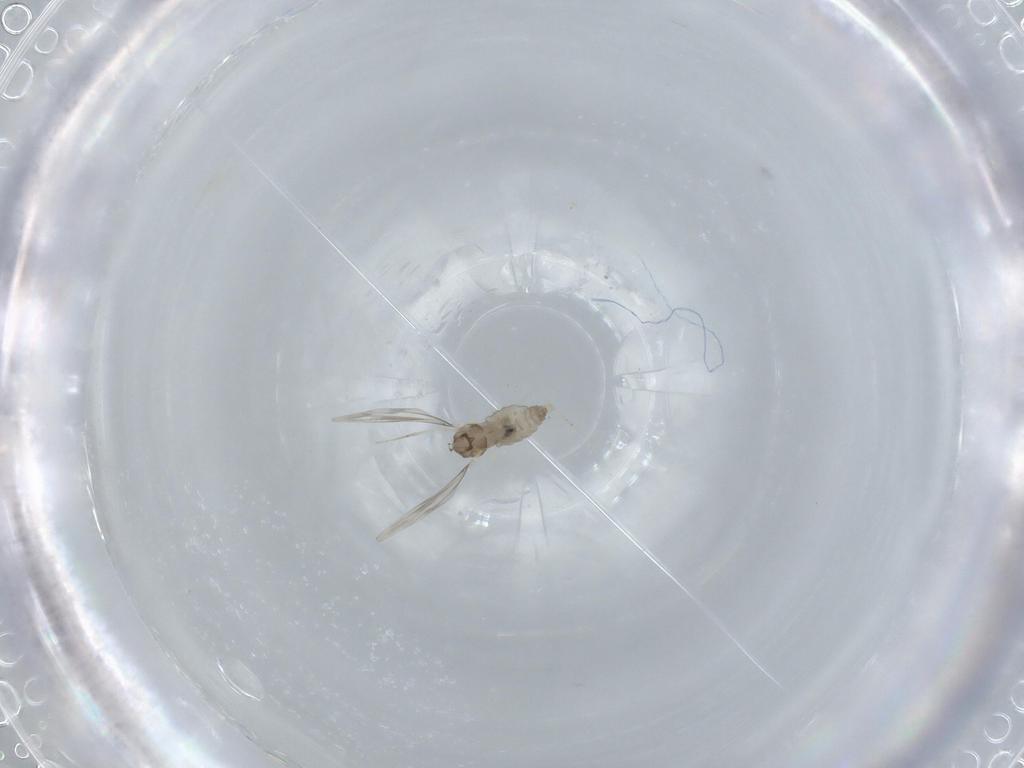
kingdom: Animalia
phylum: Arthropoda
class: Insecta
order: Diptera
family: Cecidomyiidae
